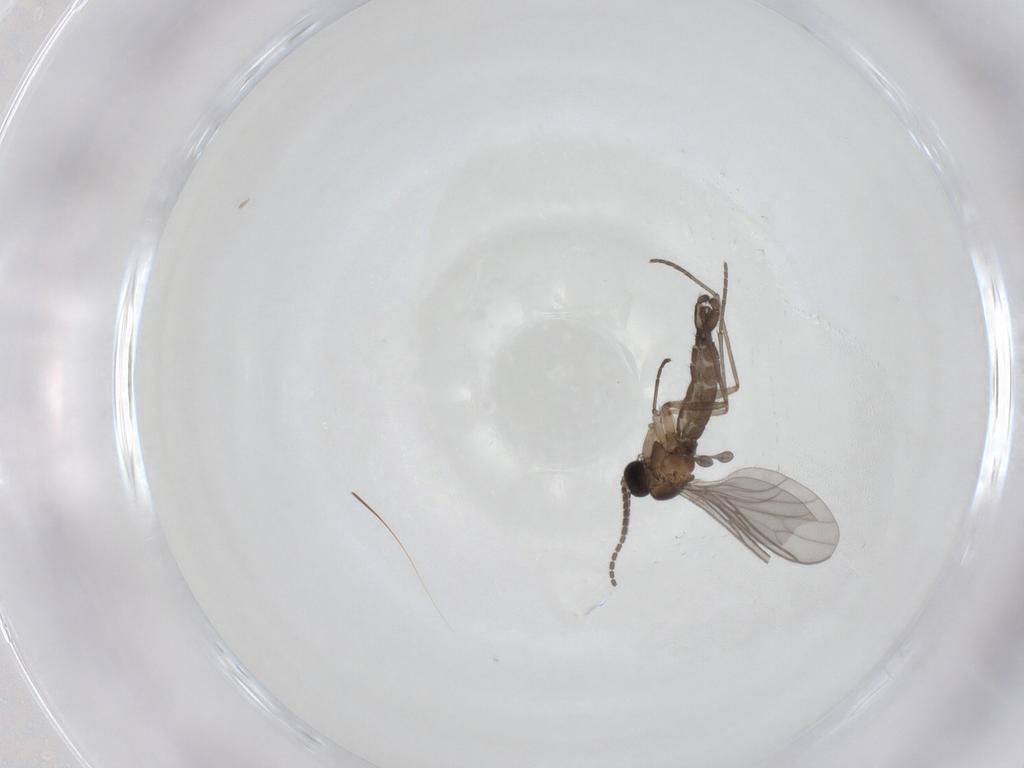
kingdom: Animalia
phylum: Arthropoda
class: Insecta
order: Diptera
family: Sciaridae
